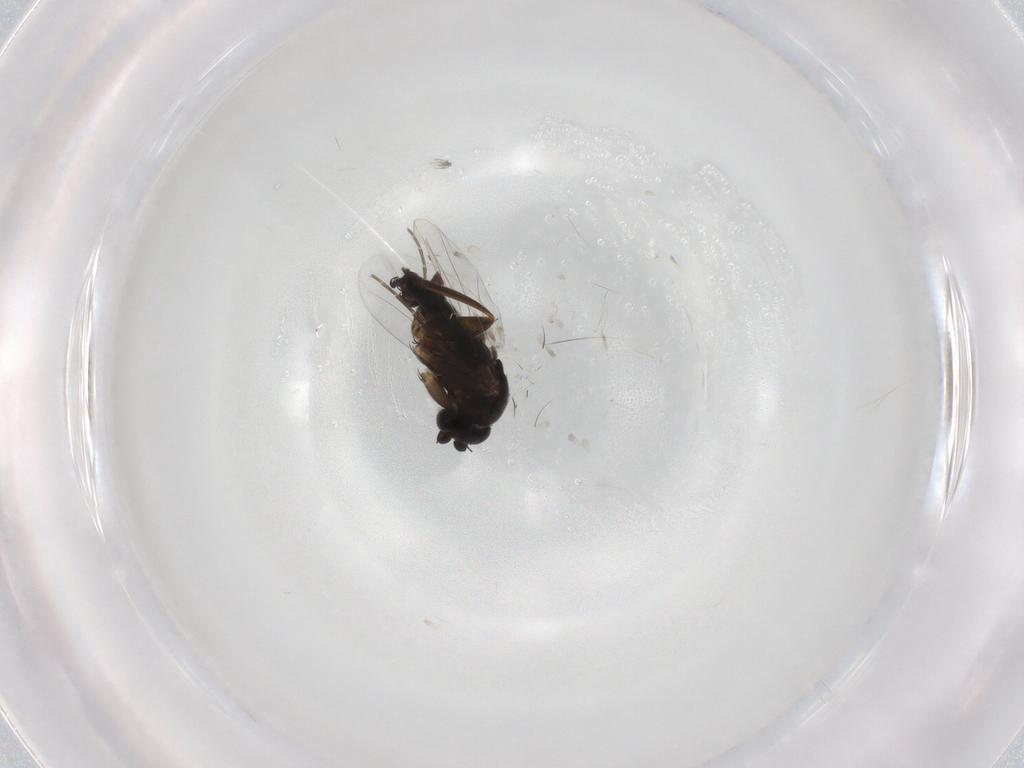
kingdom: Animalia
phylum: Arthropoda
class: Insecta
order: Diptera
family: Phoridae
